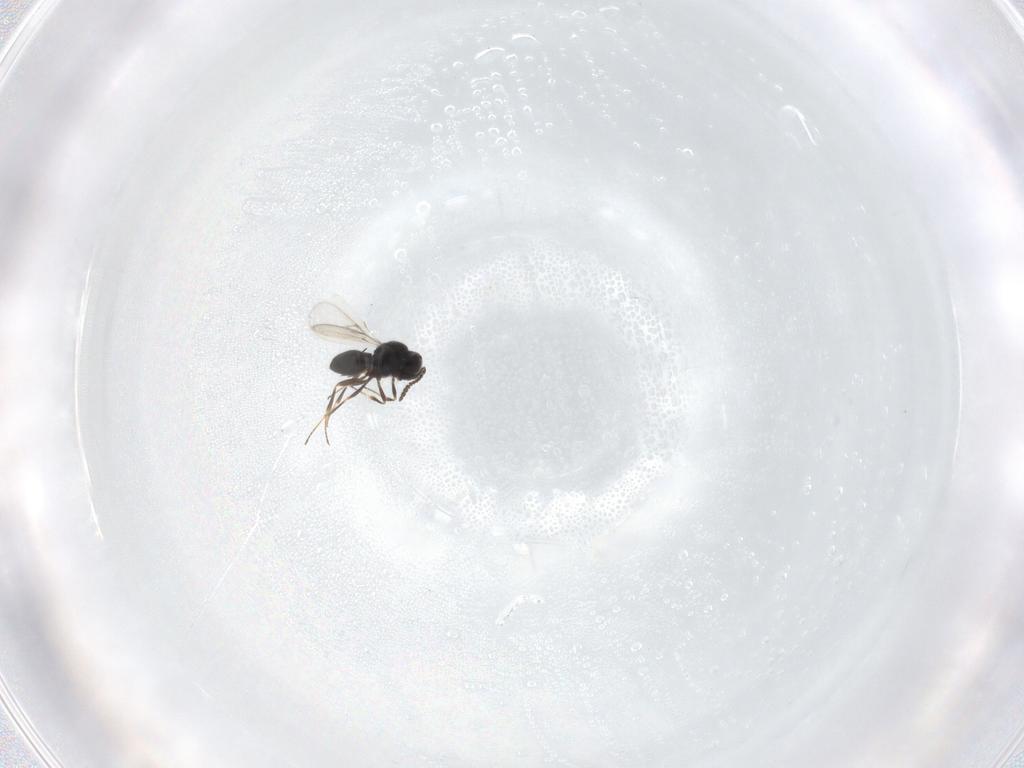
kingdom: Animalia
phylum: Arthropoda
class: Insecta
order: Hymenoptera
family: Scelionidae
